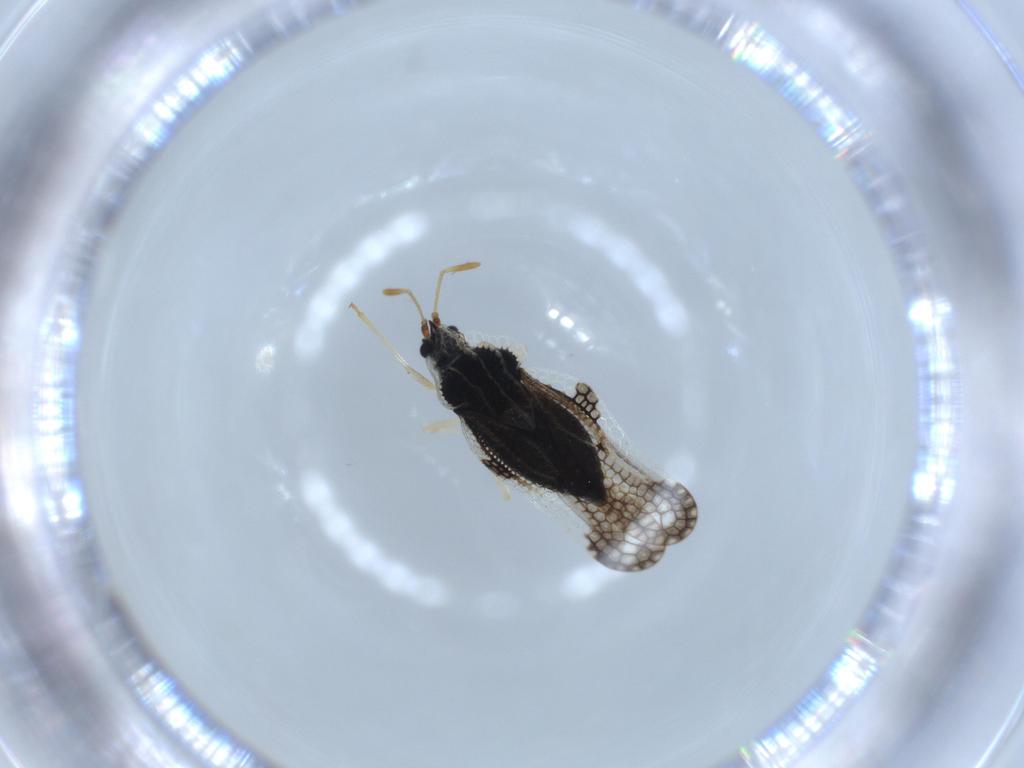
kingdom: Animalia
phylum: Arthropoda
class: Insecta
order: Hemiptera
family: Tingidae
